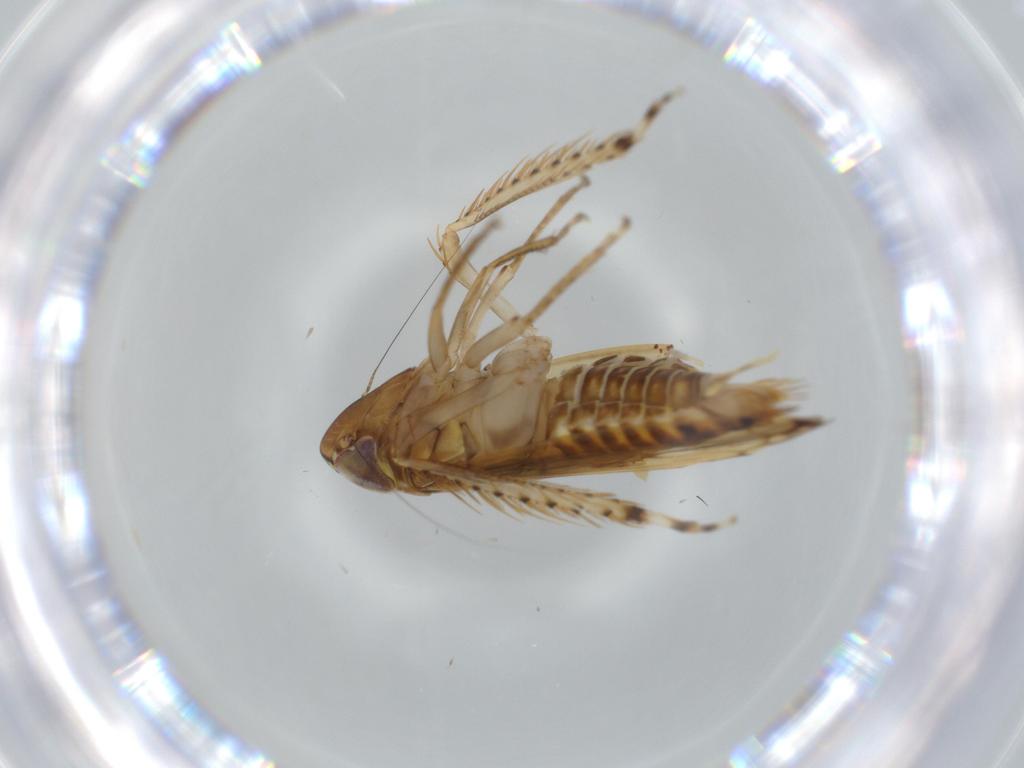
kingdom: Animalia
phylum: Arthropoda
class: Insecta
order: Hemiptera
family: Cicadellidae
